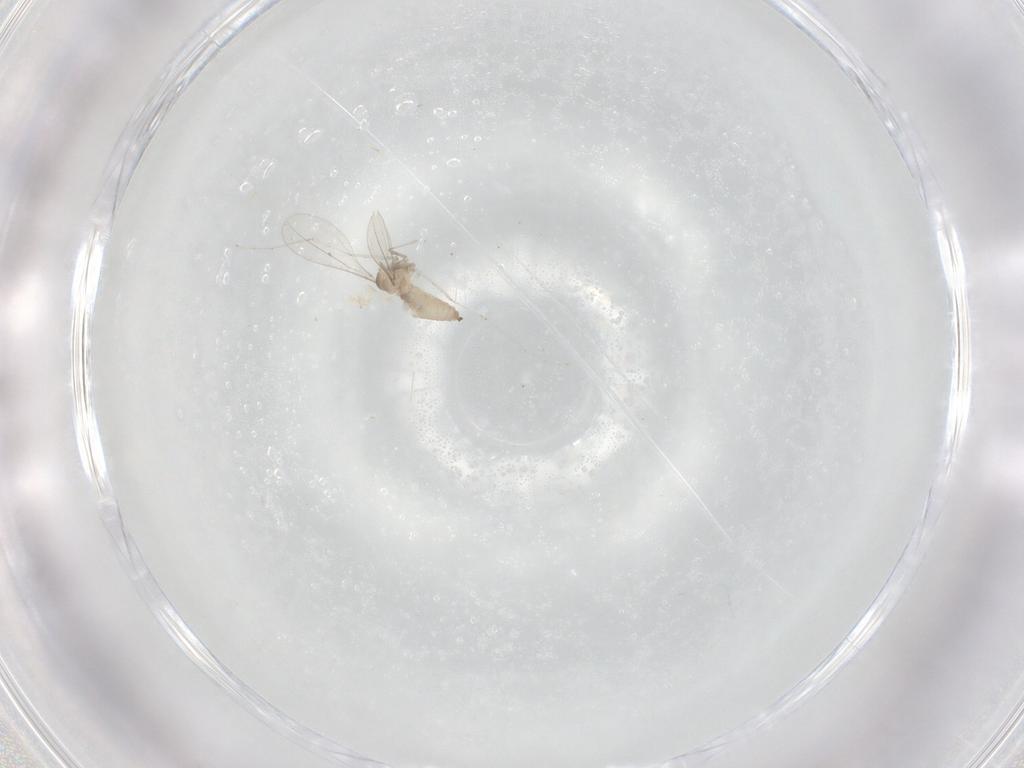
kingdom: Animalia
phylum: Arthropoda
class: Insecta
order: Diptera
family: Cecidomyiidae
